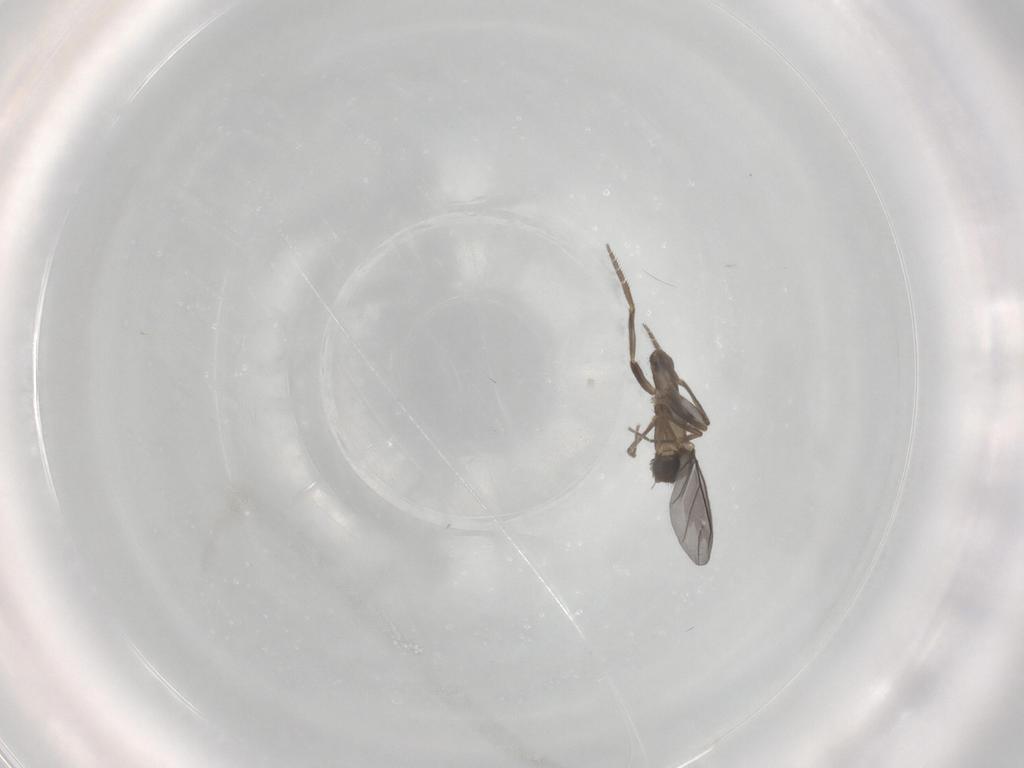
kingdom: Animalia
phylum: Arthropoda
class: Insecta
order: Diptera
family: Phoridae
